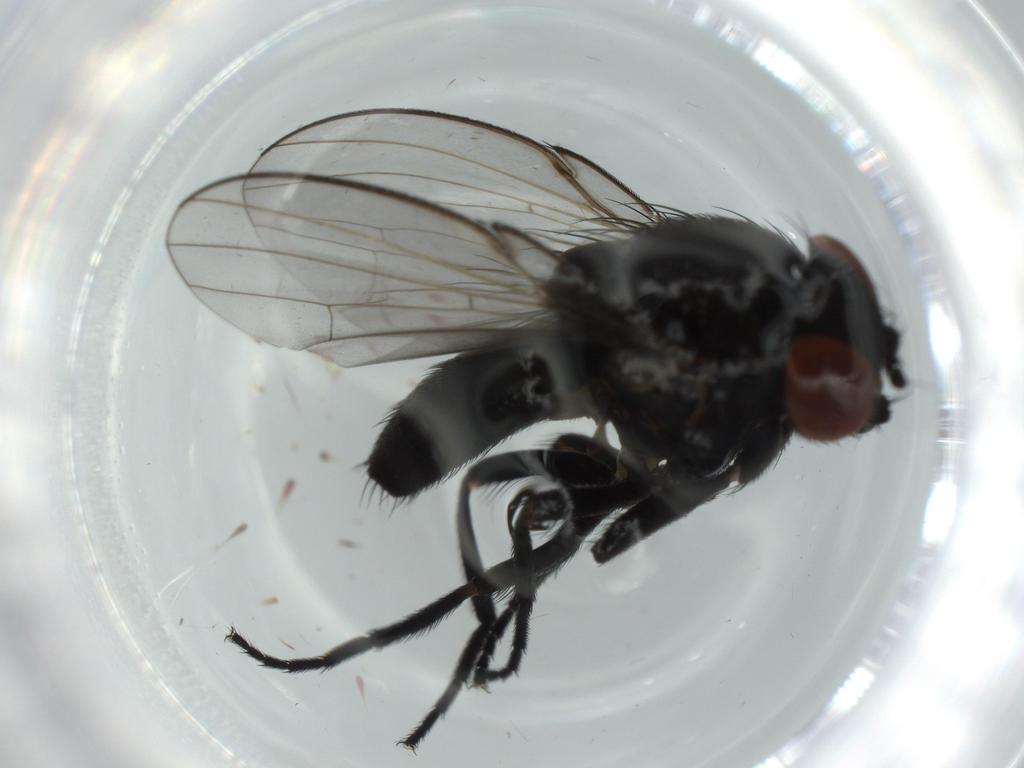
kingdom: Animalia
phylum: Arthropoda
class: Insecta
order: Diptera
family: Milichiidae
